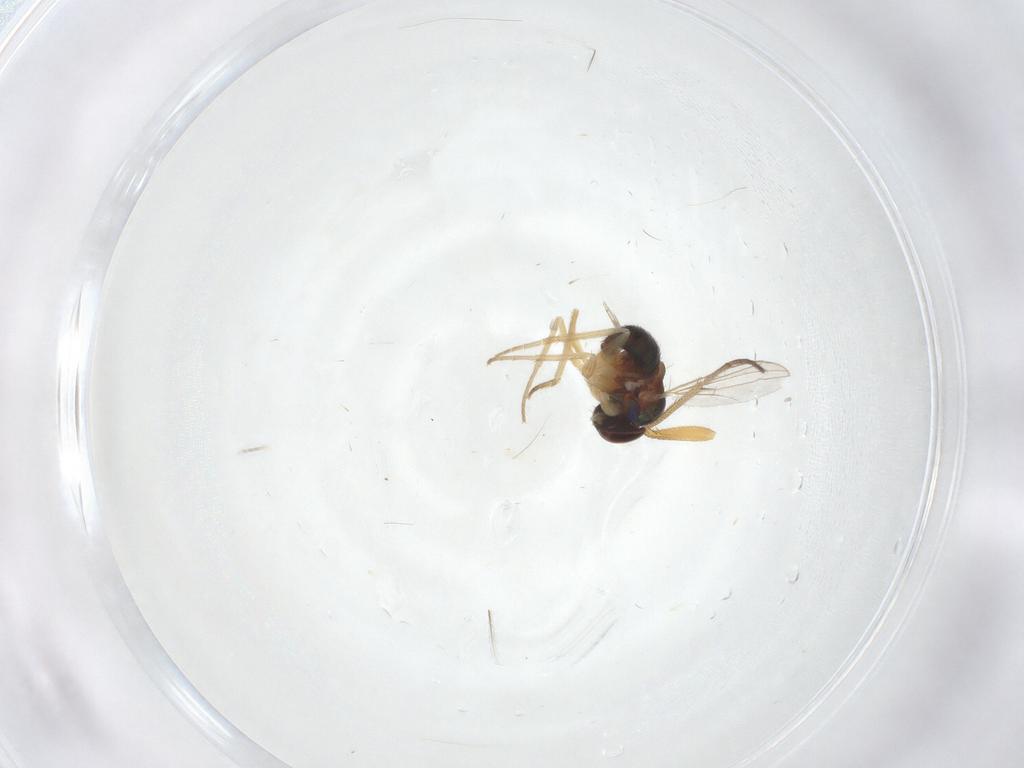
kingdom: Animalia
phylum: Arthropoda
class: Insecta
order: Diptera
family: Dolichopodidae
